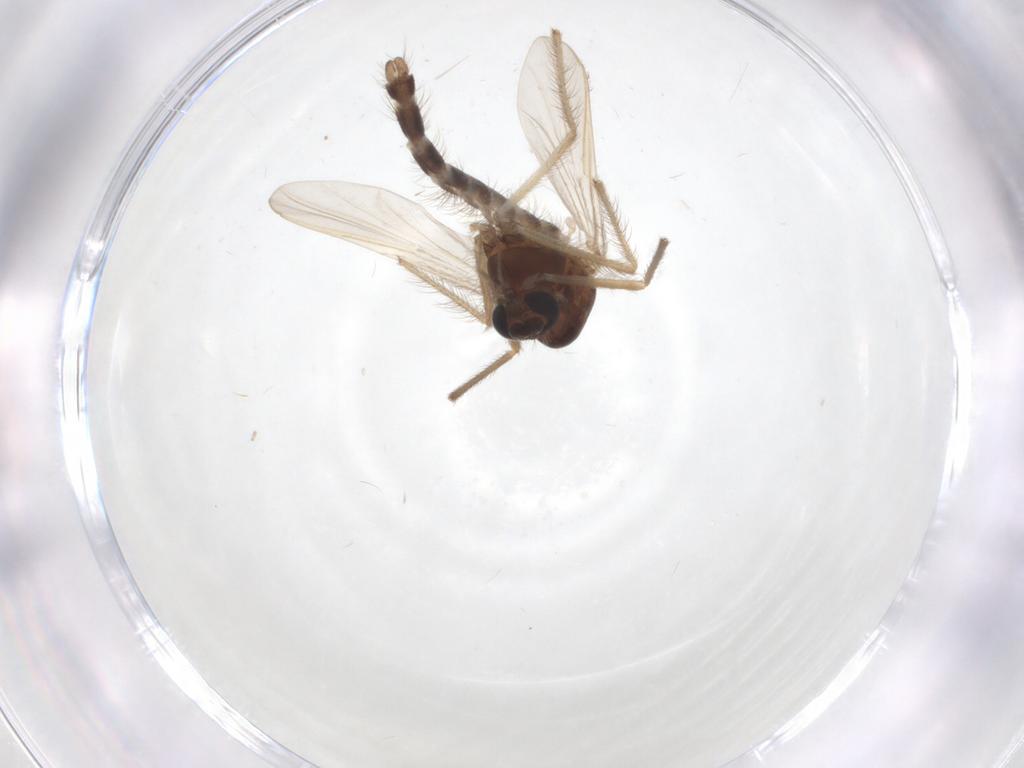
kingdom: Animalia
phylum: Arthropoda
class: Insecta
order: Diptera
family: Chironomidae
